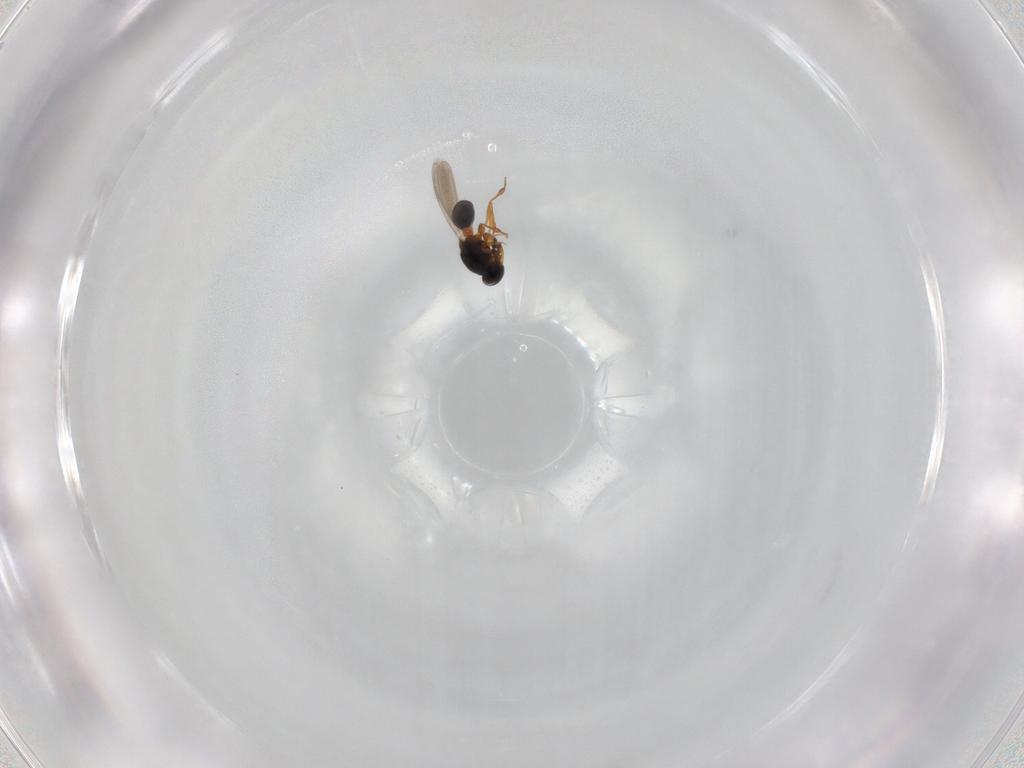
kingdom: Animalia
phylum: Arthropoda
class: Insecta
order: Hymenoptera
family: Platygastridae
